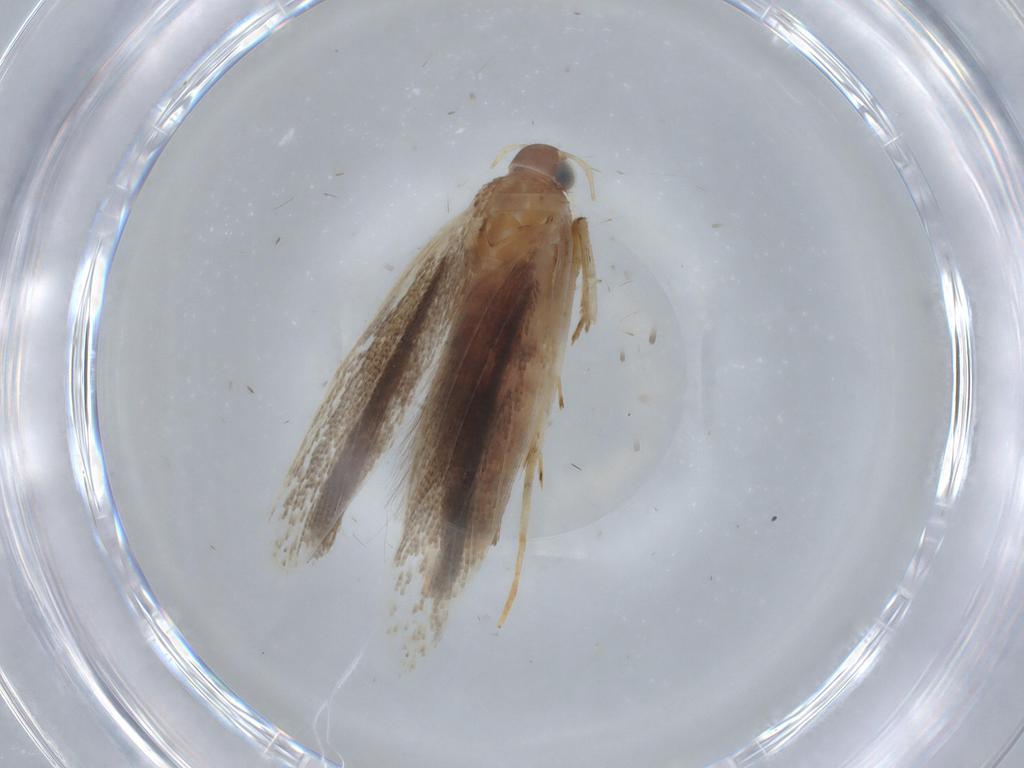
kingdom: Animalia
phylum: Arthropoda
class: Insecta
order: Lepidoptera
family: Gelechiidae
